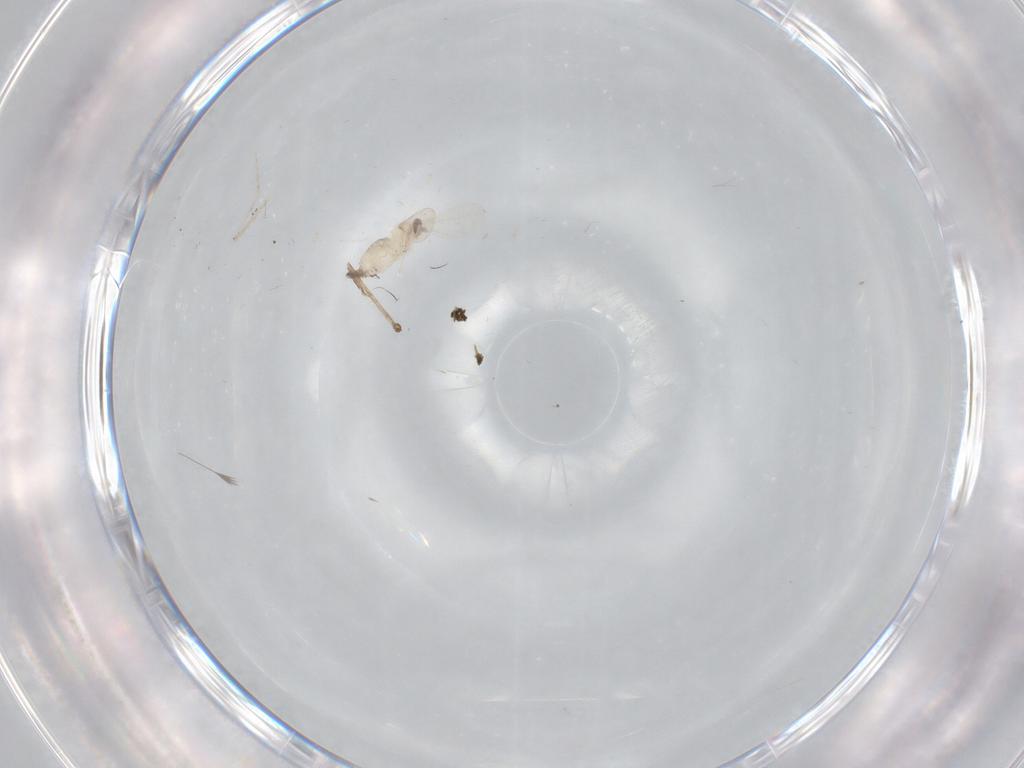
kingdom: Animalia
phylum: Arthropoda
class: Insecta
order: Diptera
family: Cecidomyiidae
